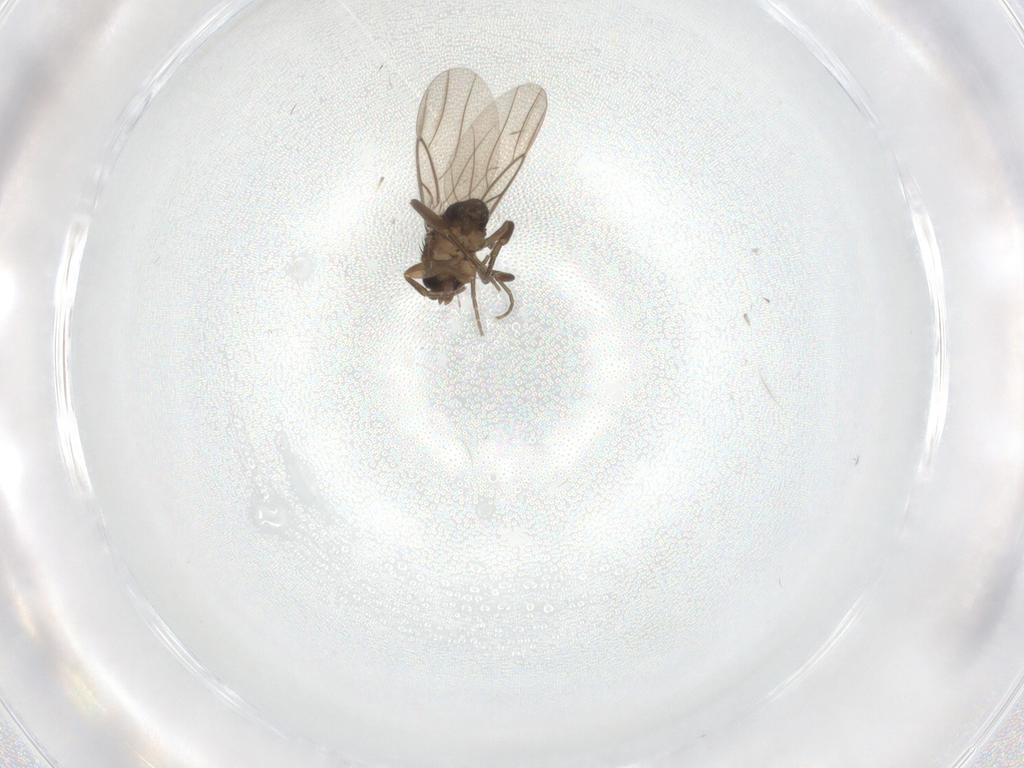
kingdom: Animalia
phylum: Arthropoda
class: Insecta
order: Diptera
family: Phoridae
